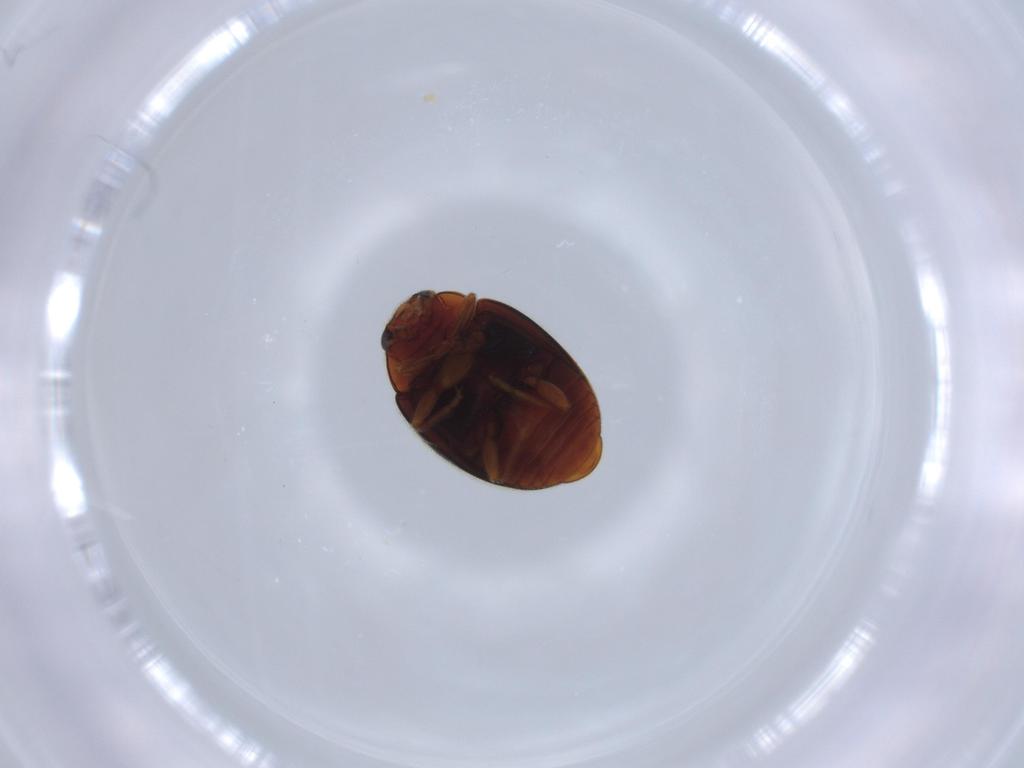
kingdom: Animalia
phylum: Arthropoda
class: Insecta
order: Coleoptera
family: Coccinellidae
